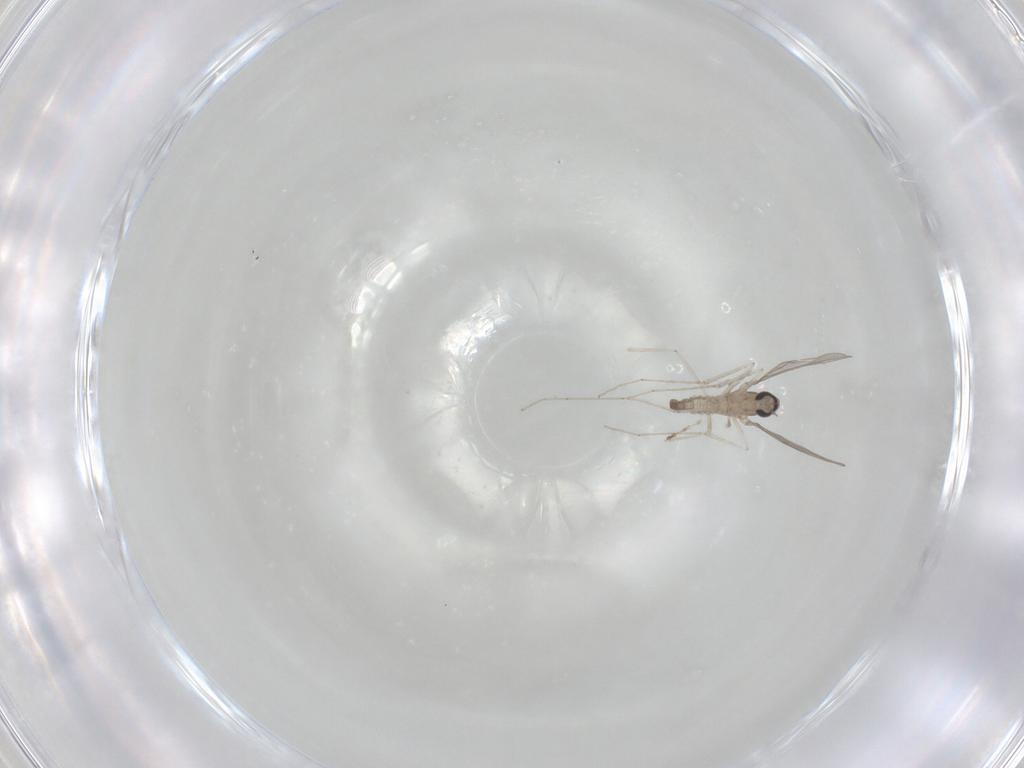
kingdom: Animalia
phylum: Arthropoda
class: Insecta
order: Diptera
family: Cecidomyiidae
